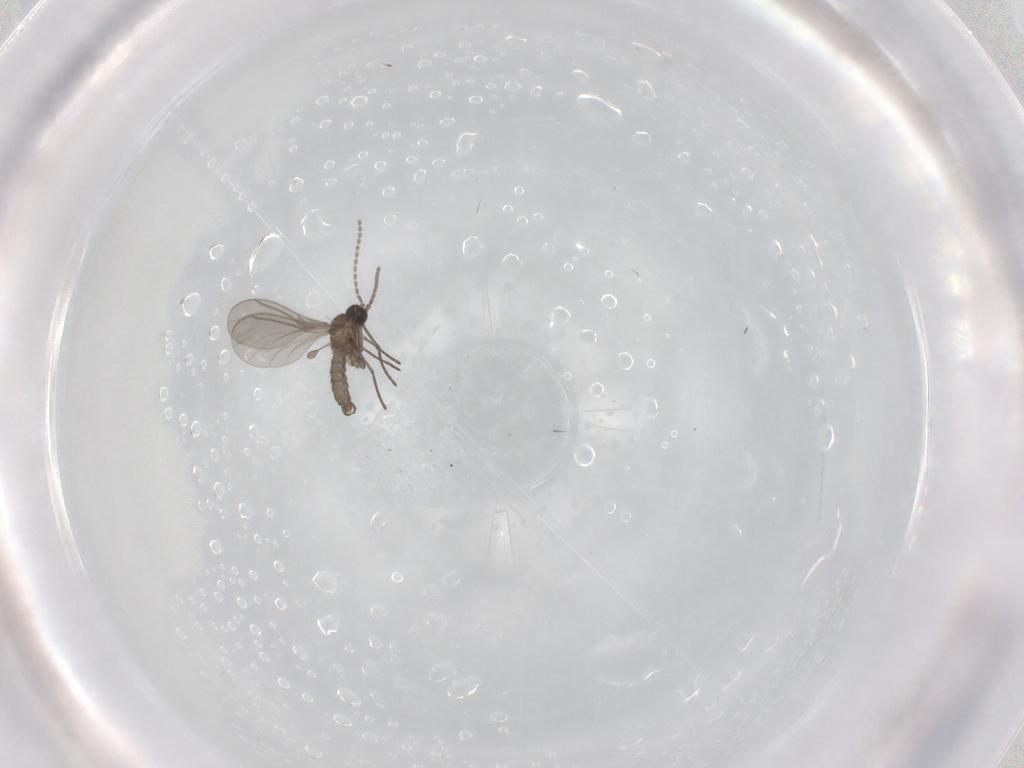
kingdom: Animalia
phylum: Arthropoda
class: Insecta
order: Diptera
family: Sciaridae
